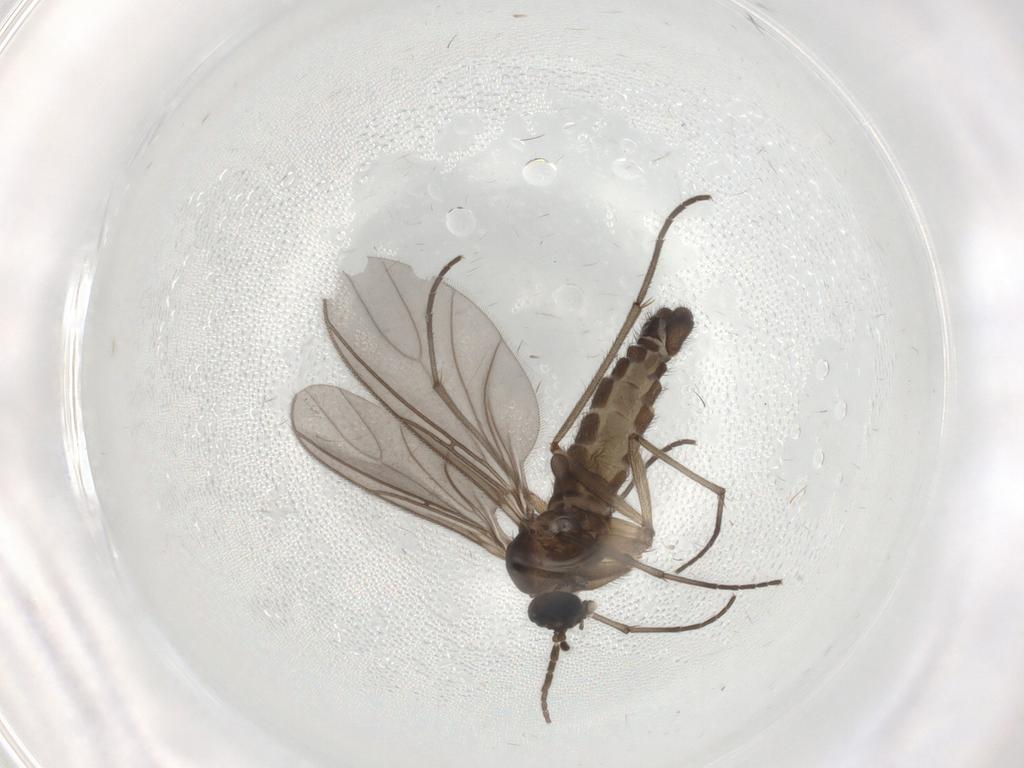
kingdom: Animalia
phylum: Arthropoda
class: Insecta
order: Diptera
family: Sciaridae
